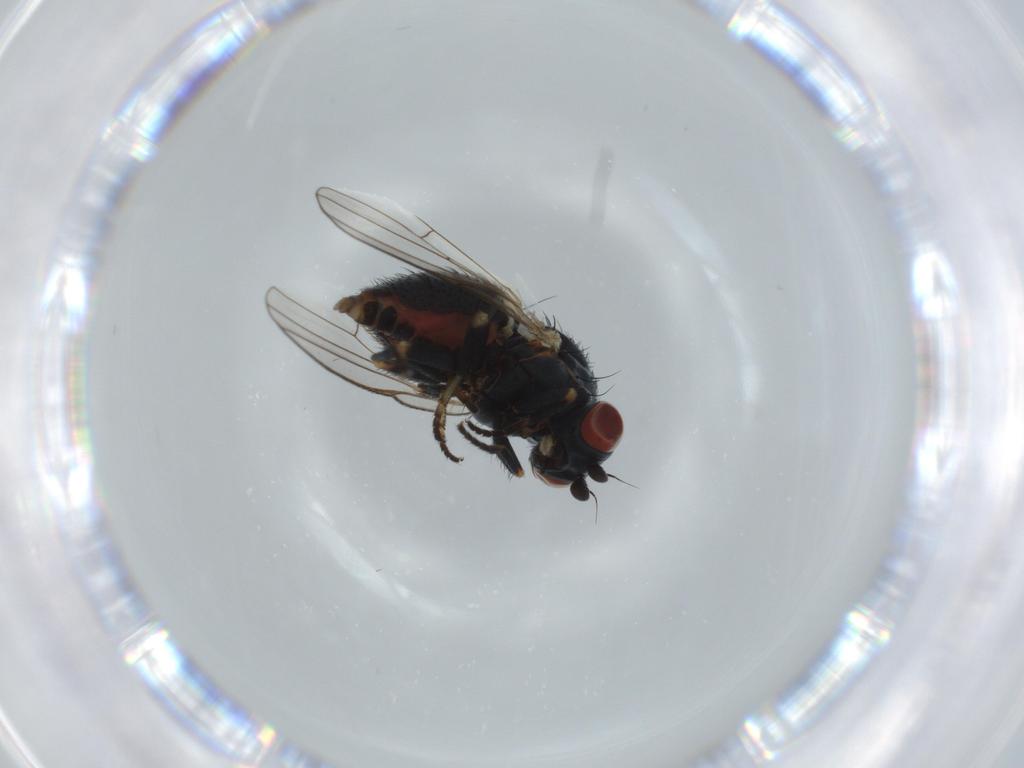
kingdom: Animalia
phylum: Arthropoda
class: Insecta
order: Diptera
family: Chamaemyiidae
